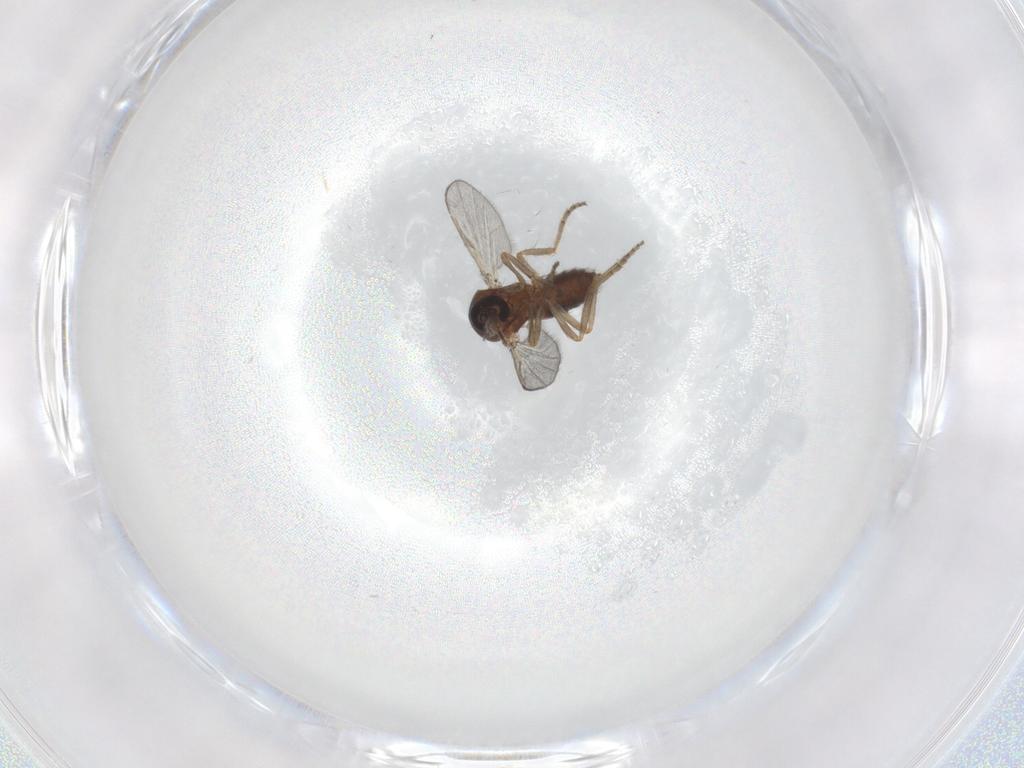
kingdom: Animalia
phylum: Arthropoda
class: Insecta
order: Diptera
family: Ceratopogonidae
